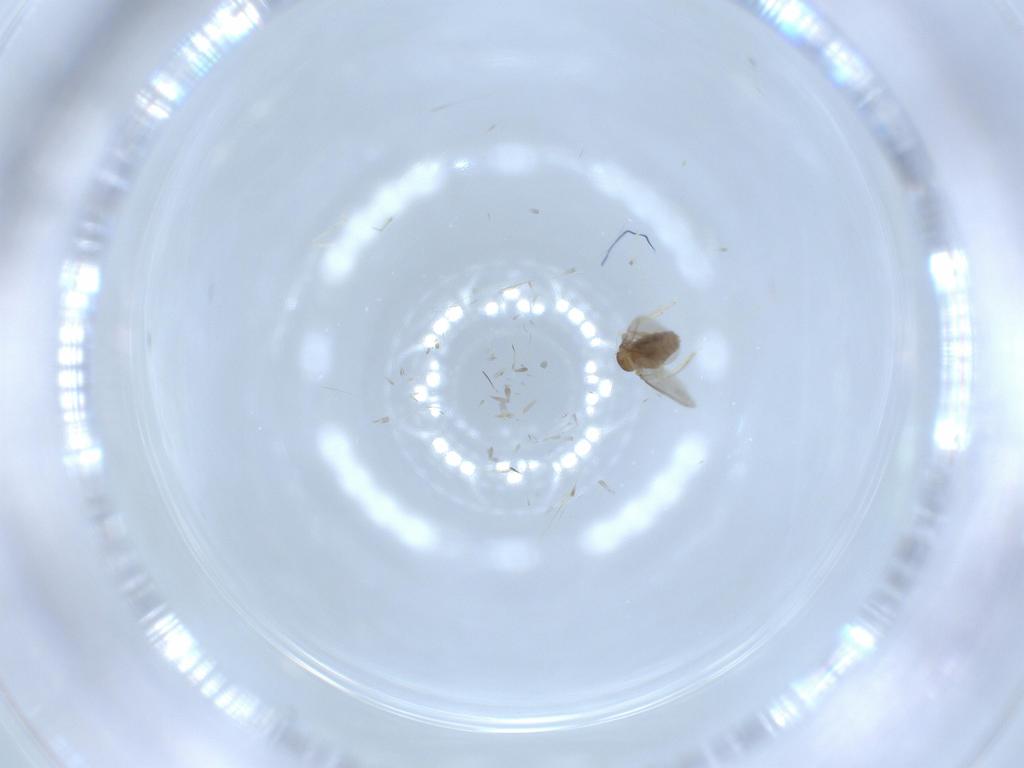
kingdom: Animalia
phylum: Arthropoda
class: Insecta
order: Diptera
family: Cecidomyiidae
